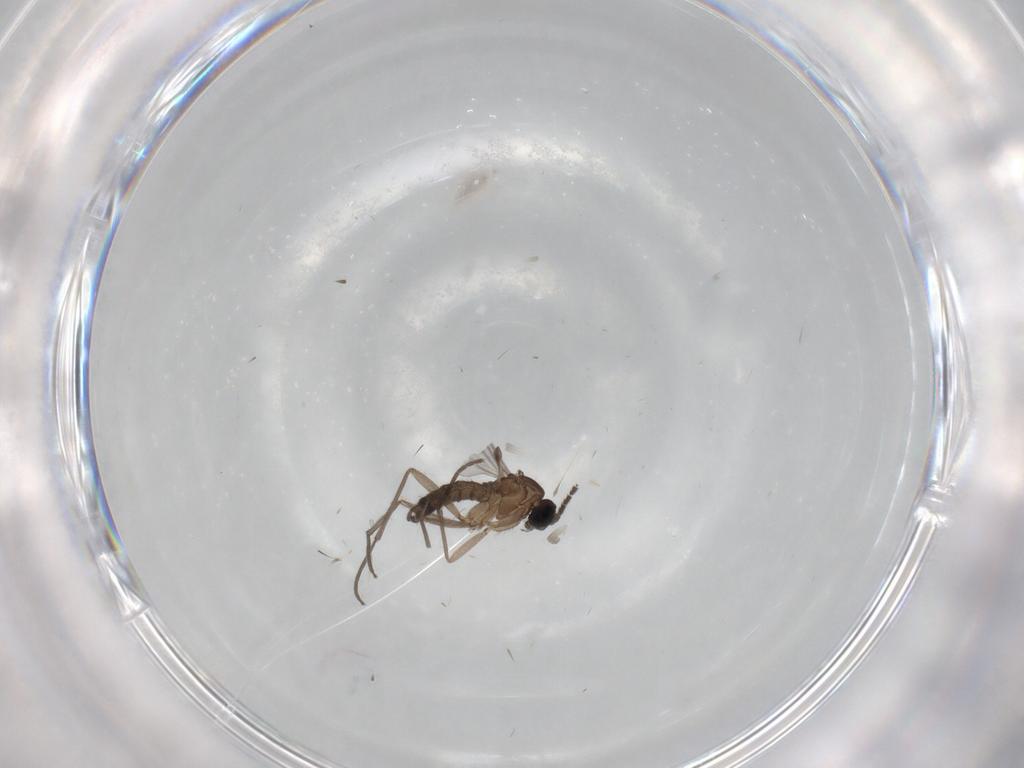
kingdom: Animalia
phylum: Arthropoda
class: Insecta
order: Diptera
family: Sciaridae
